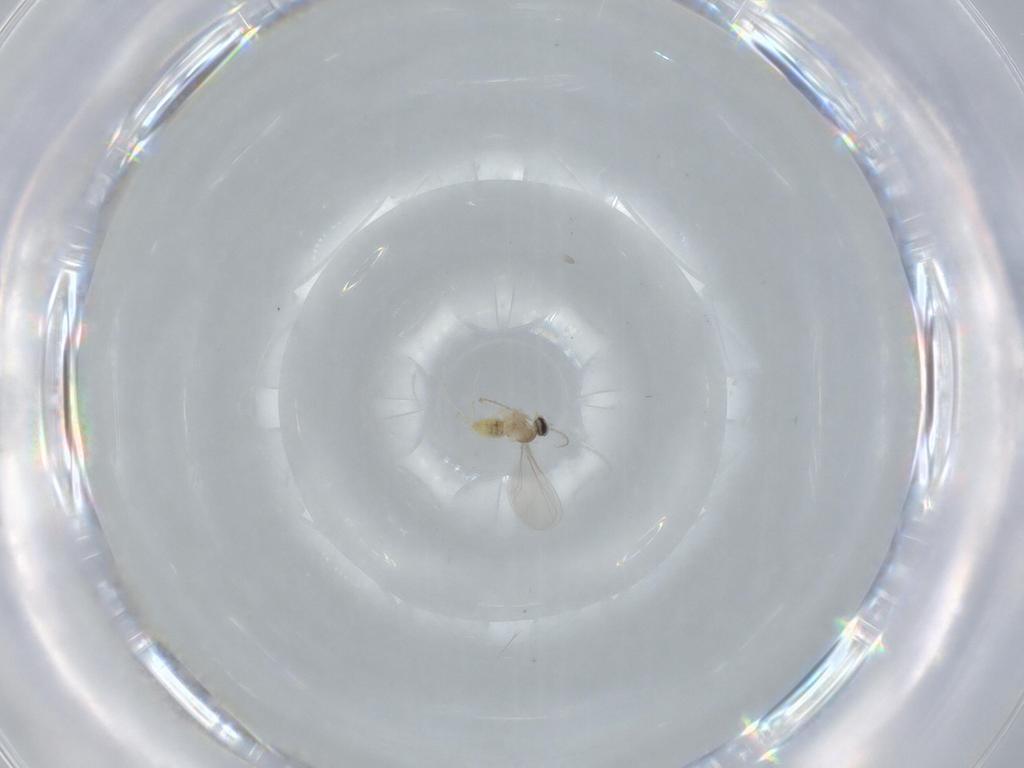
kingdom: Animalia
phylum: Arthropoda
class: Insecta
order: Diptera
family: Cecidomyiidae
